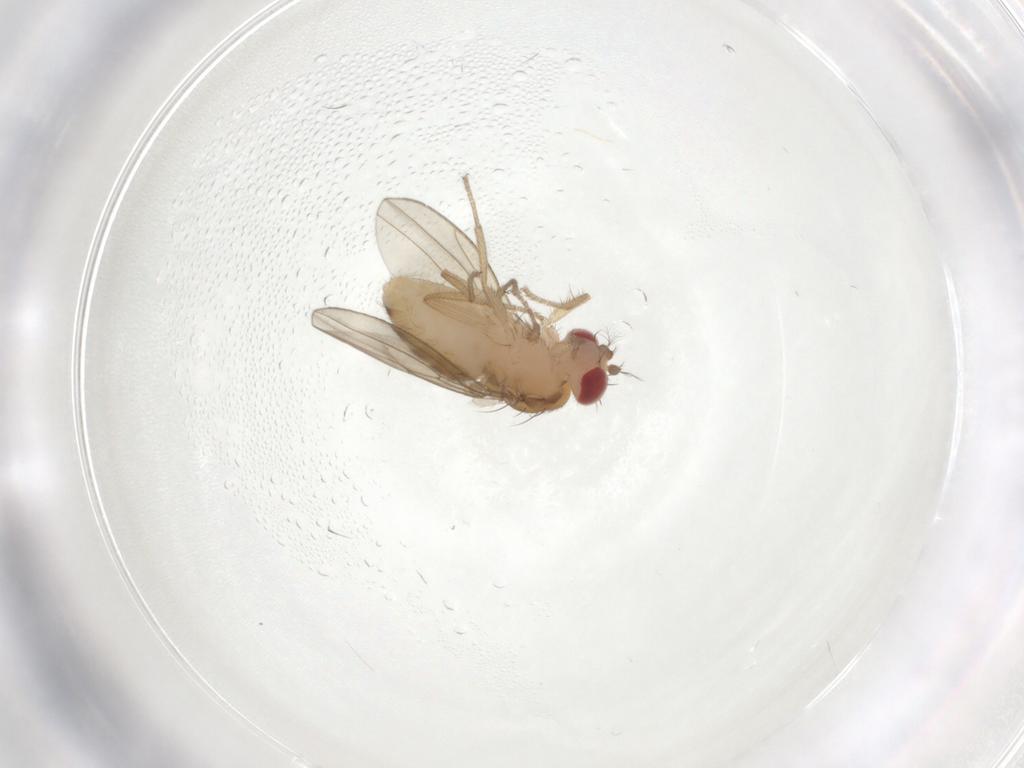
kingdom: Animalia
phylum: Arthropoda
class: Insecta
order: Diptera
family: Drosophilidae
